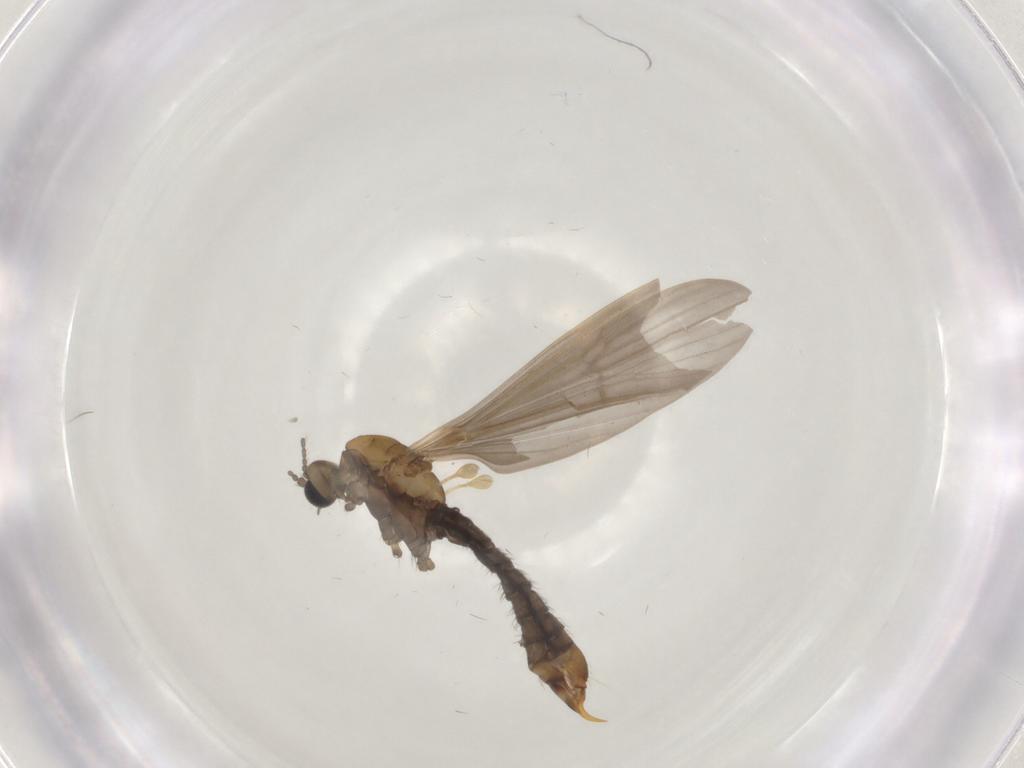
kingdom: Animalia
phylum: Arthropoda
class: Insecta
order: Diptera
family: Limoniidae
